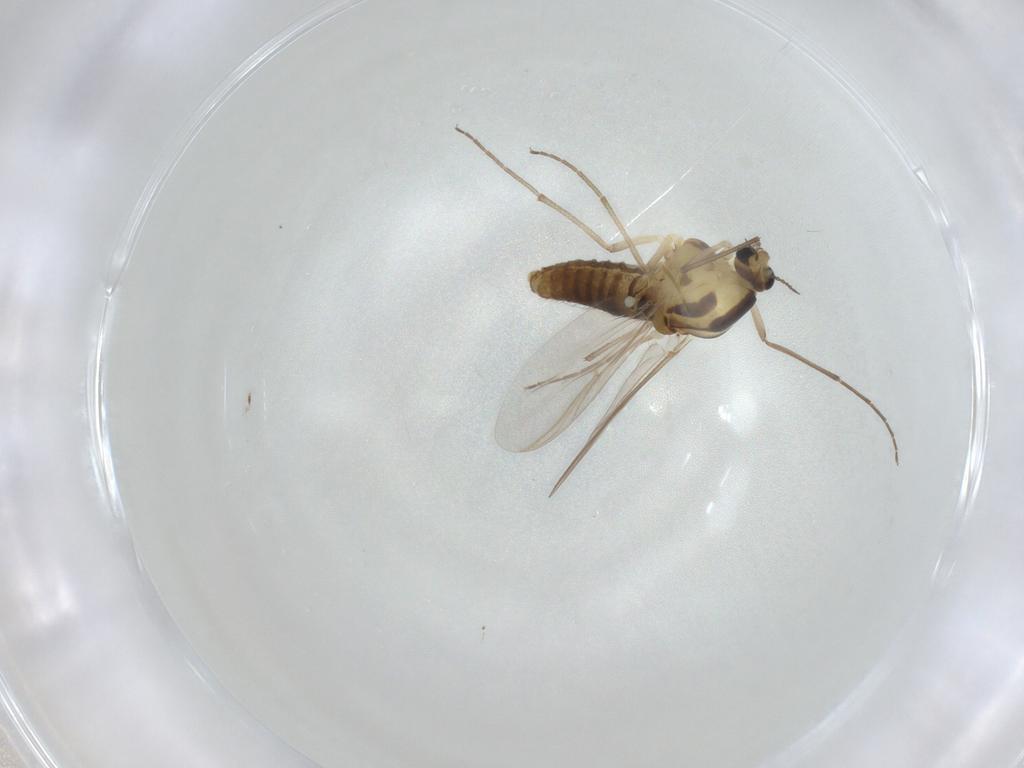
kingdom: Animalia
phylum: Arthropoda
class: Insecta
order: Diptera
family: Chironomidae
